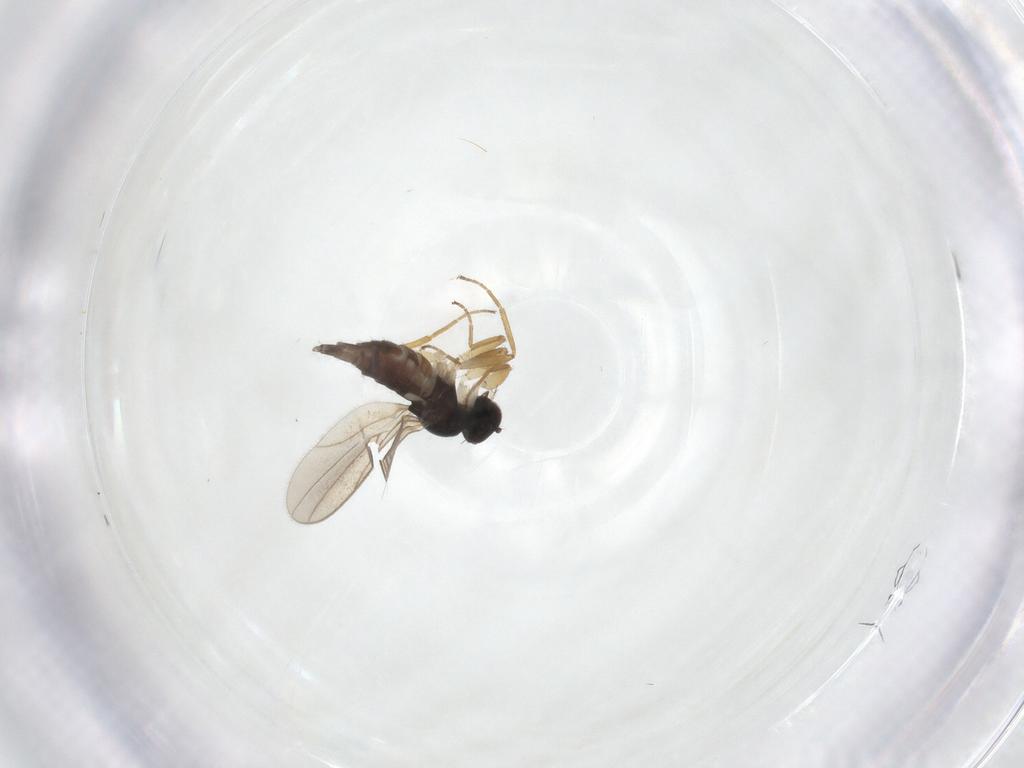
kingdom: Animalia
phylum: Arthropoda
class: Insecta
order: Diptera
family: Hybotidae
